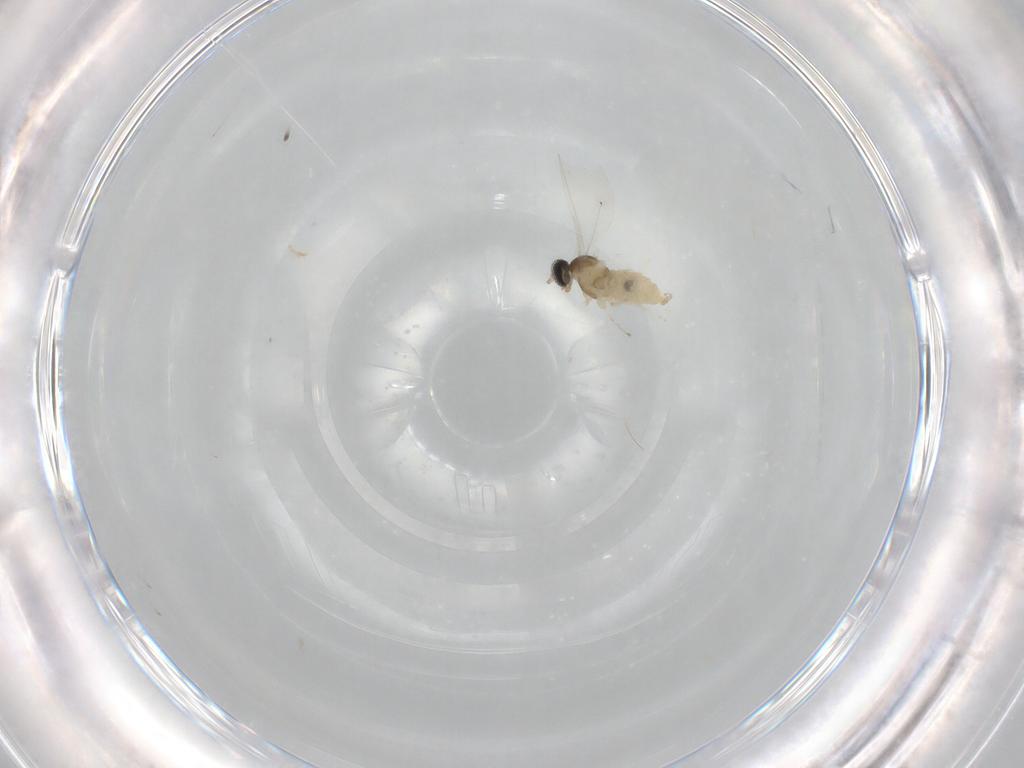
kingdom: Animalia
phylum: Arthropoda
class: Insecta
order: Diptera
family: Cecidomyiidae
